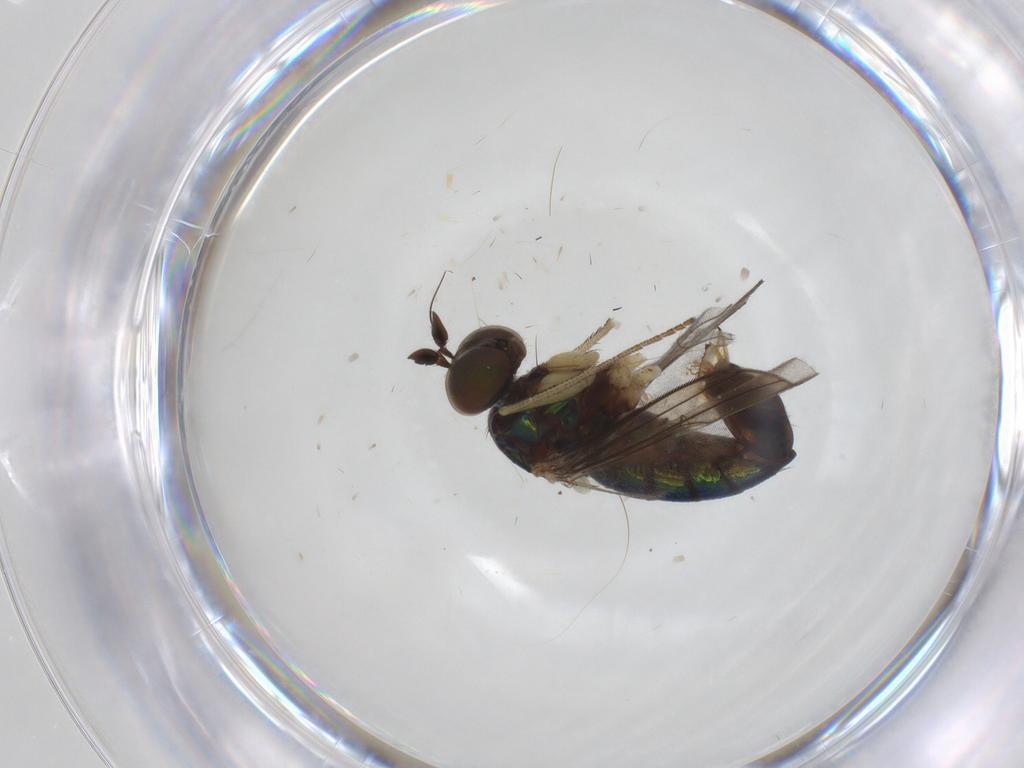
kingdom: Animalia
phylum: Arthropoda
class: Insecta
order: Diptera
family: Dolichopodidae
